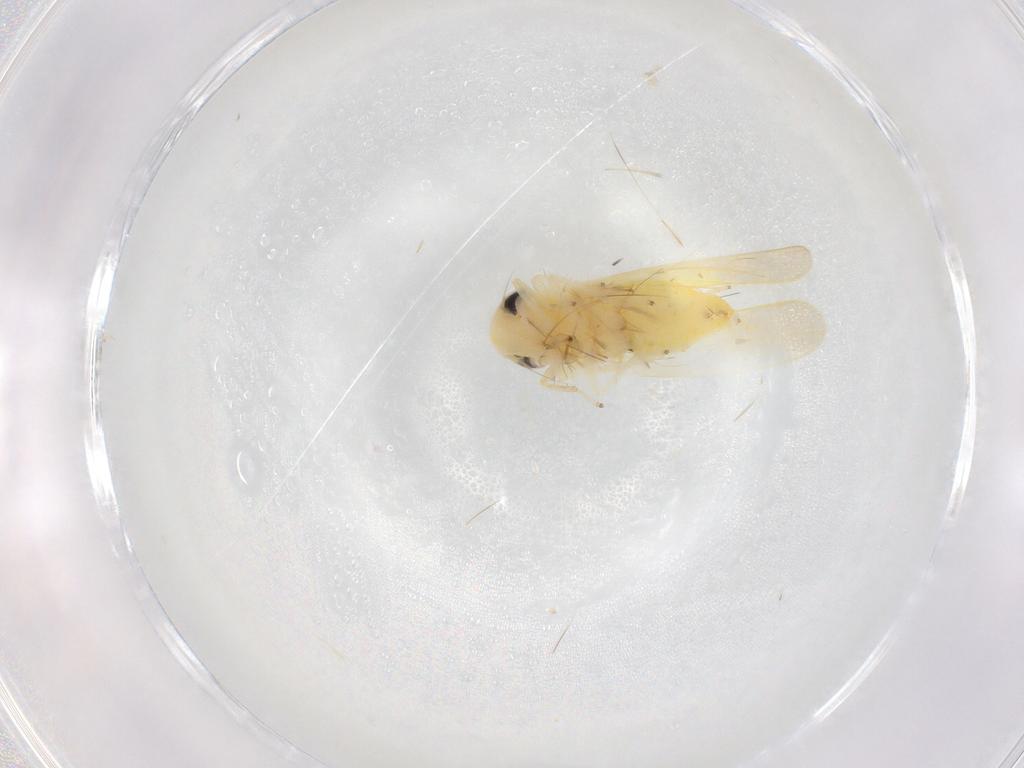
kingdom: Animalia
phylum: Arthropoda
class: Insecta
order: Hemiptera
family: Cicadellidae
